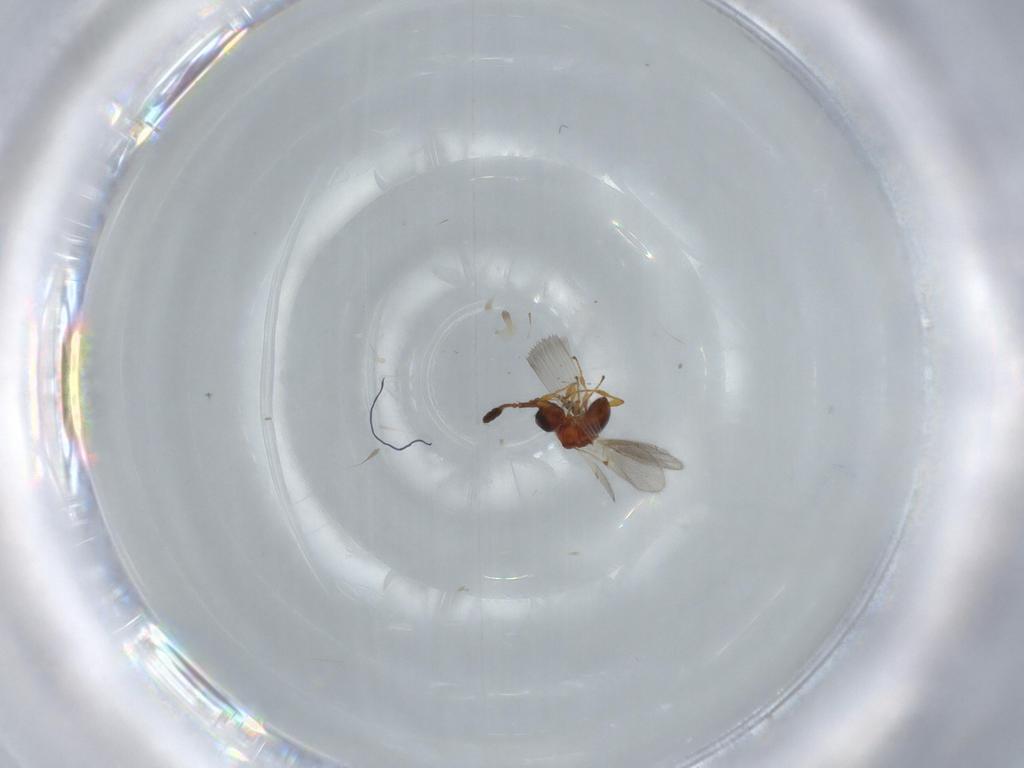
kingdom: Animalia
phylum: Arthropoda
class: Insecta
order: Hymenoptera
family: Diapriidae
